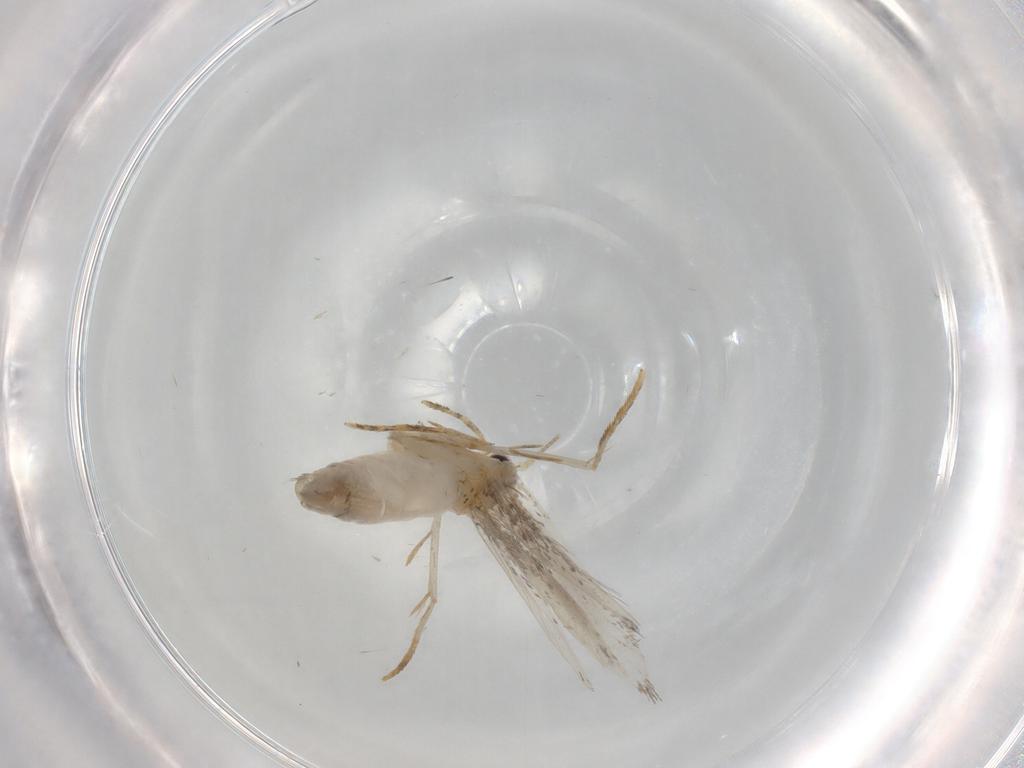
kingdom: Animalia
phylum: Arthropoda
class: Insecta
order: Lepidoptera
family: Tineidae
